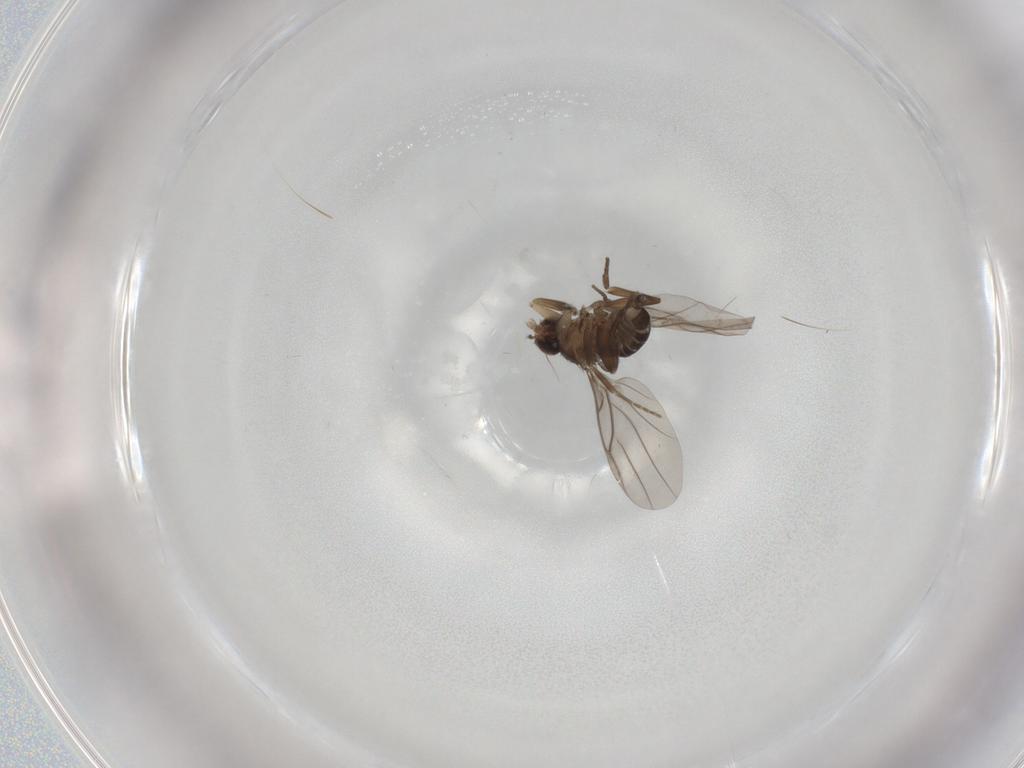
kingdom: Animalia
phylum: Arthropoda
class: Insecta
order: Diptera
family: Phoridae
